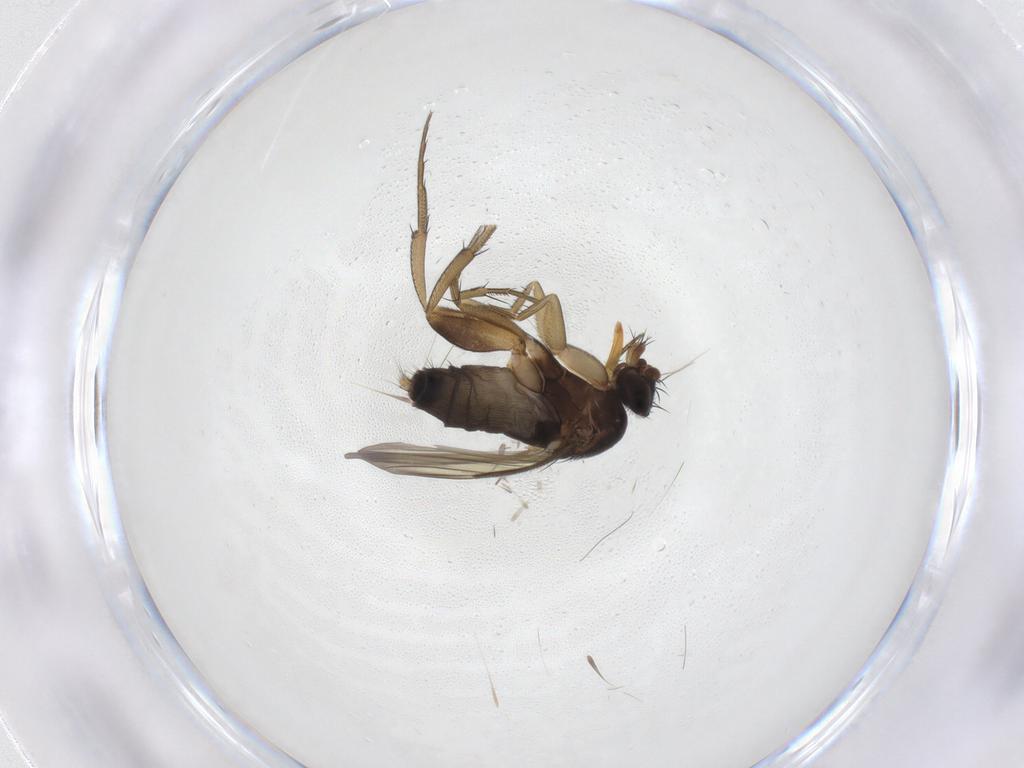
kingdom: Animalia
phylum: Arthropoda
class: Insecta
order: Diptera
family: Phoridae
